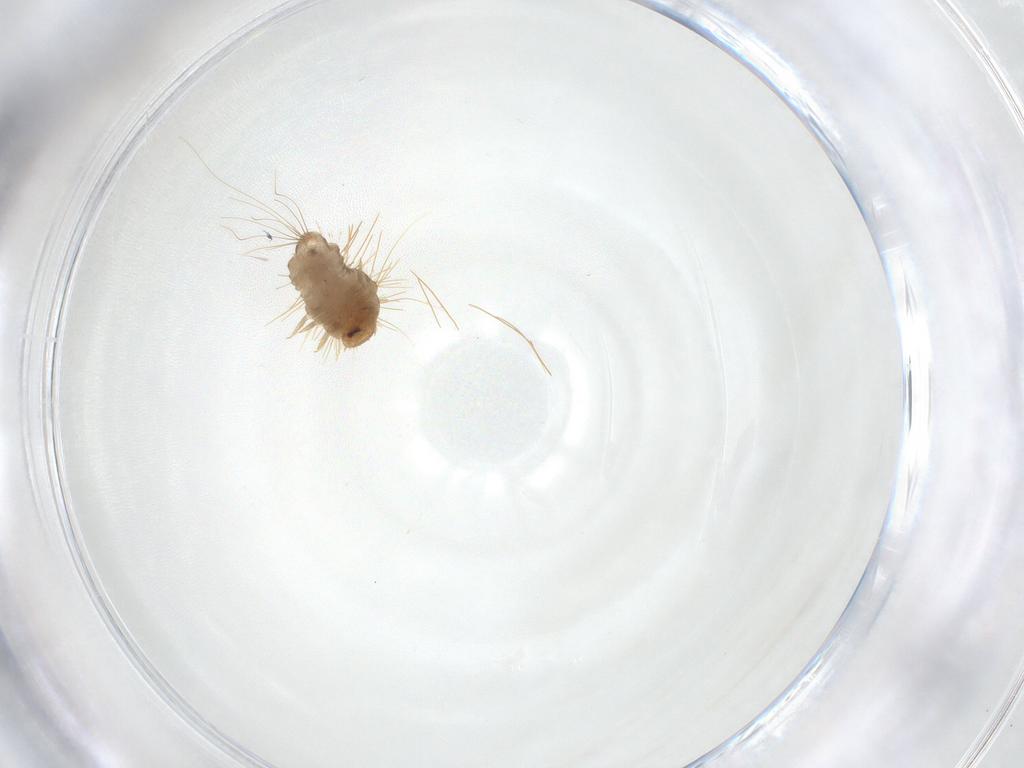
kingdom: Animalia
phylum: Arthropoda
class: Insecta
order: Coleoptera
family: Dermestidae
